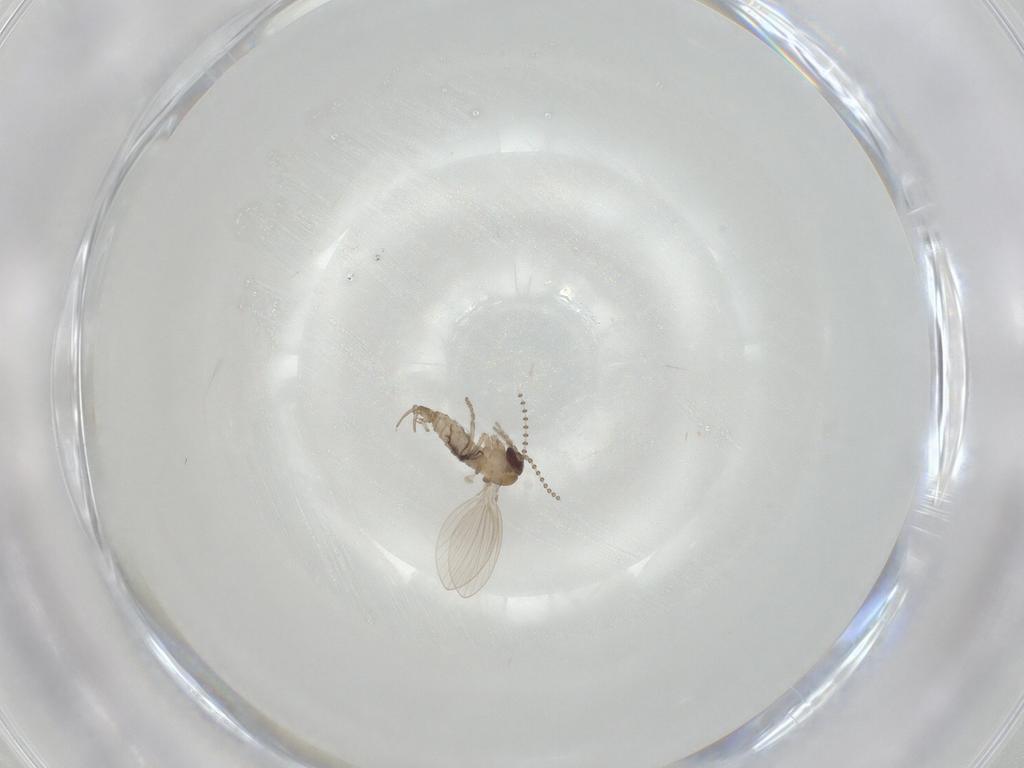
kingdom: Animalia
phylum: Arthropoda
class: Insecta
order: Diptera
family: Psychodidae
